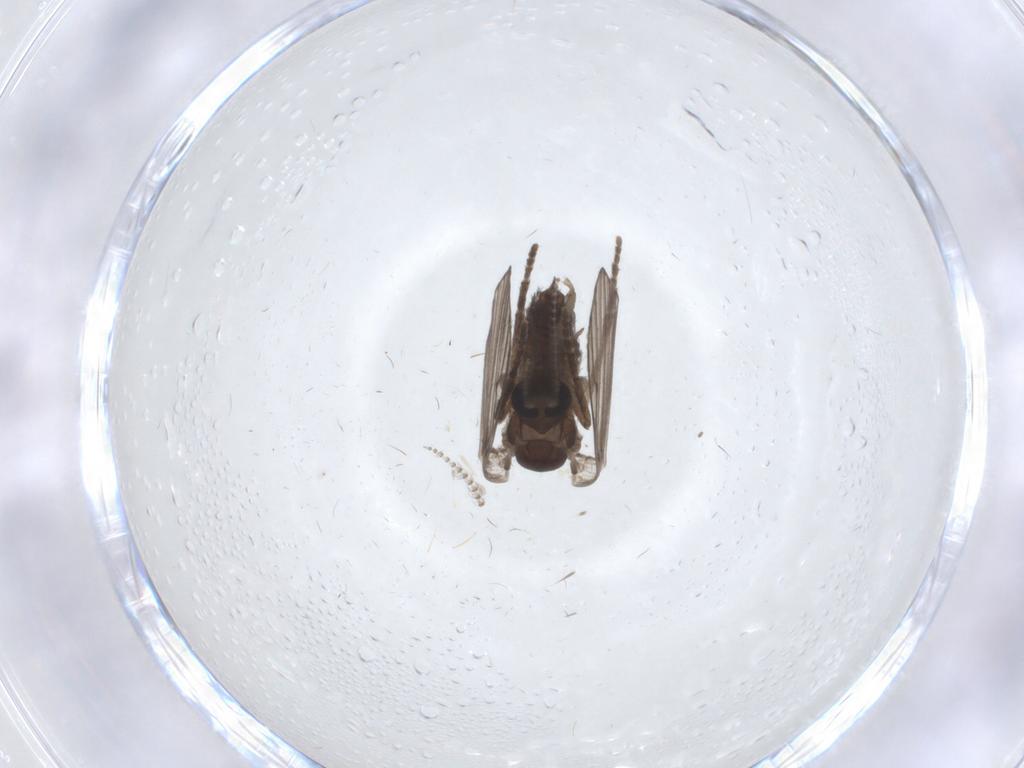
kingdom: Animalia
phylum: Arthropoda
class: Insecta
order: Diptera
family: Psychodidae
